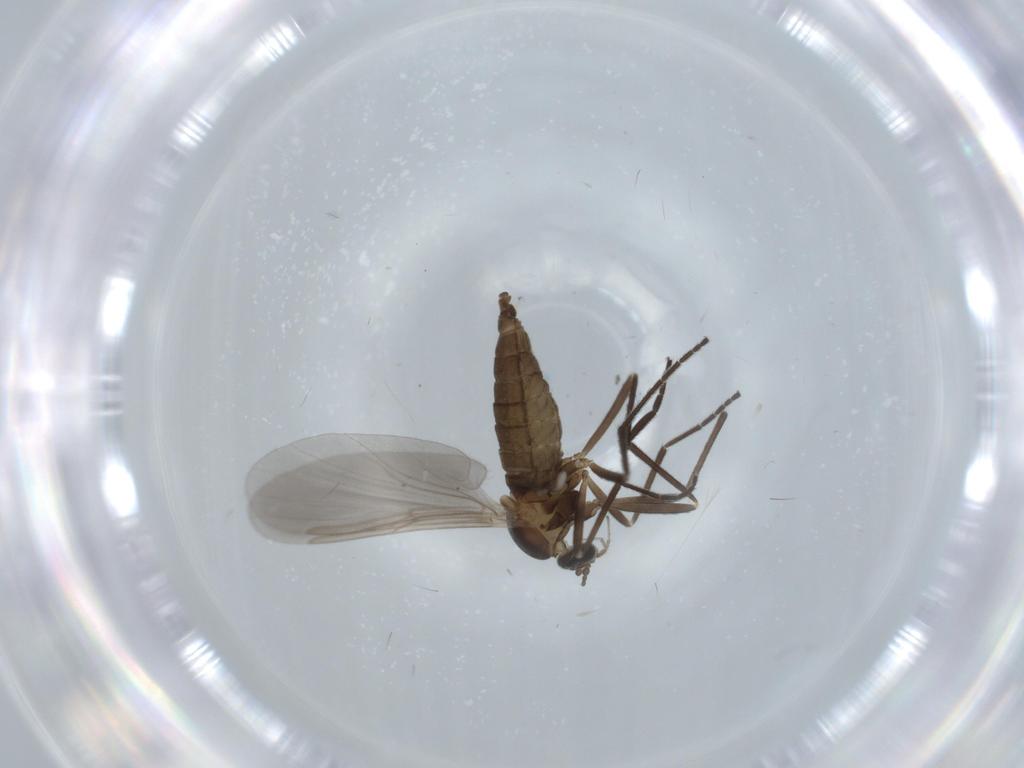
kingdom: Animalia
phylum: Arthropoda
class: Insecta
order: Diptera
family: Cecidomyiidae
